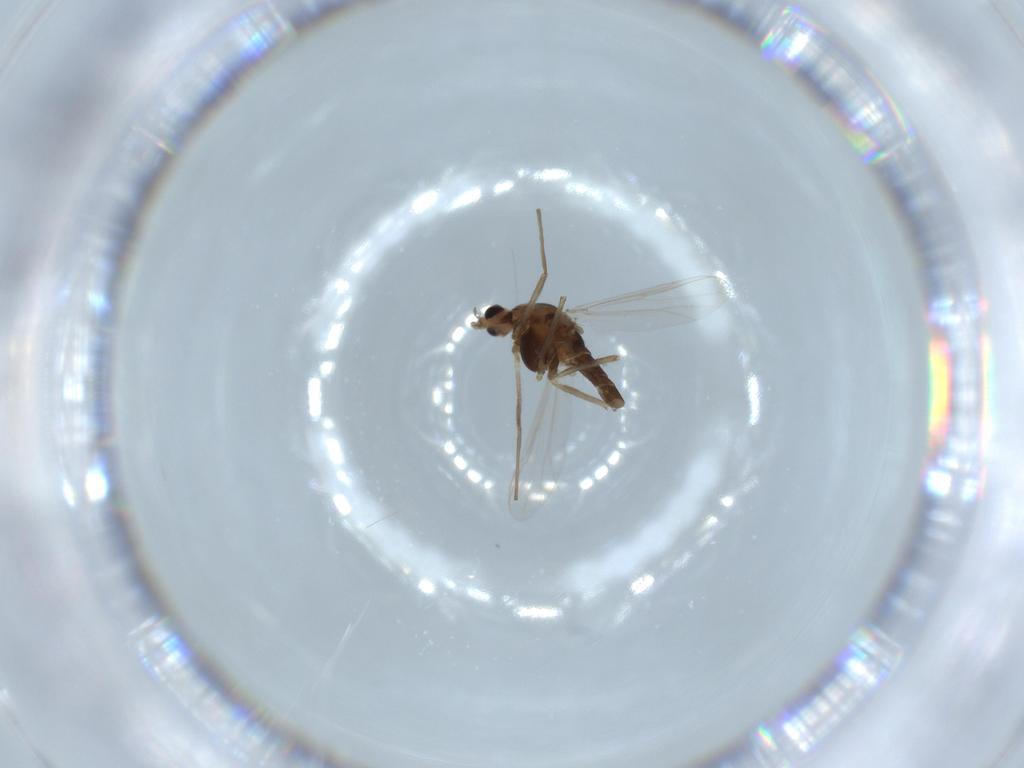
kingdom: Animalia
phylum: Arthropoda
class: Insecta
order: Diptera
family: Chironomidae
